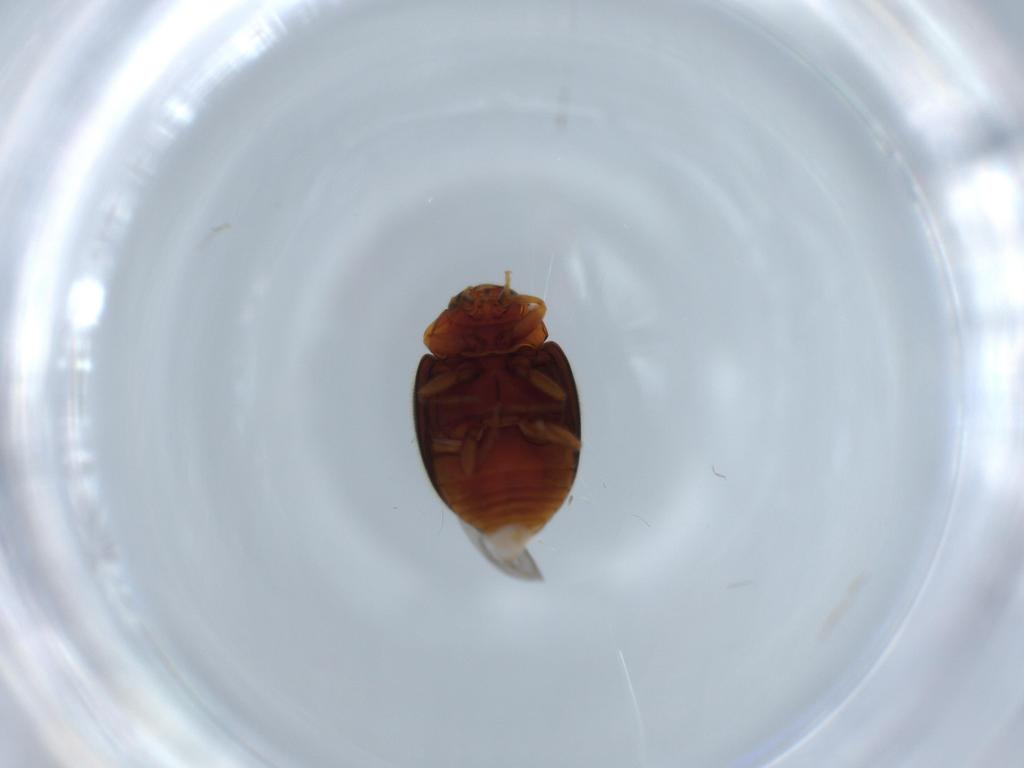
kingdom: Animalia
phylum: Arthropoda
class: Insecta
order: Coleoptera
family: Coccinellidae
